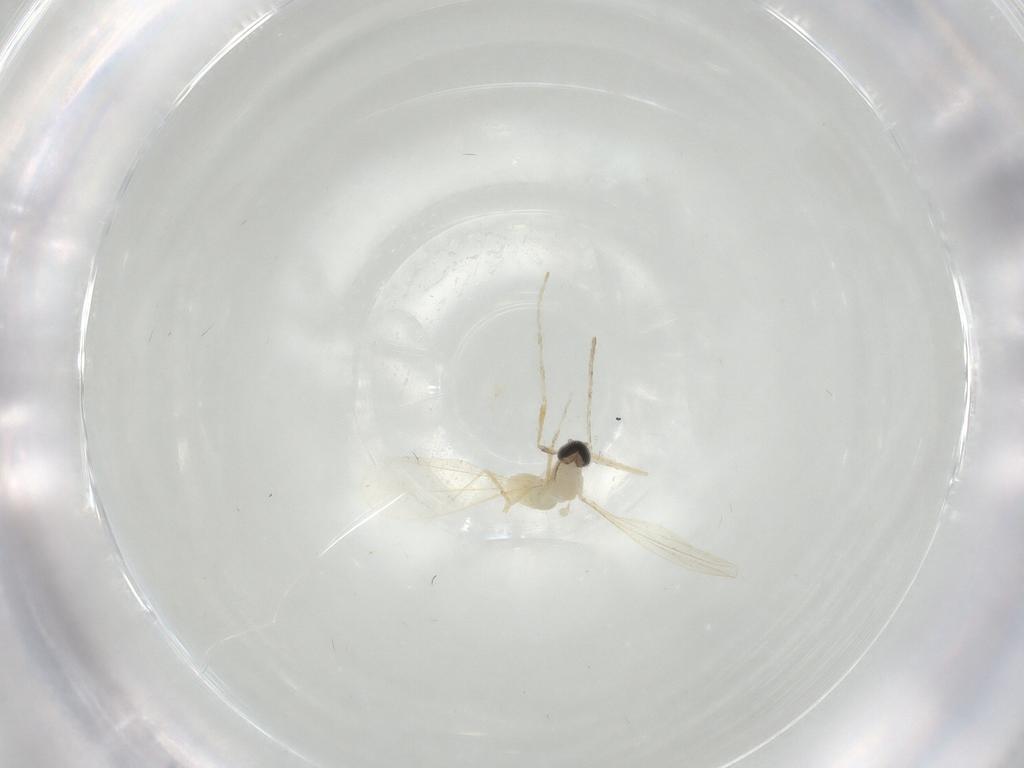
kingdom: Animalia
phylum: Arthropoda
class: Insecta
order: Diptera
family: Cecidomyiidae
